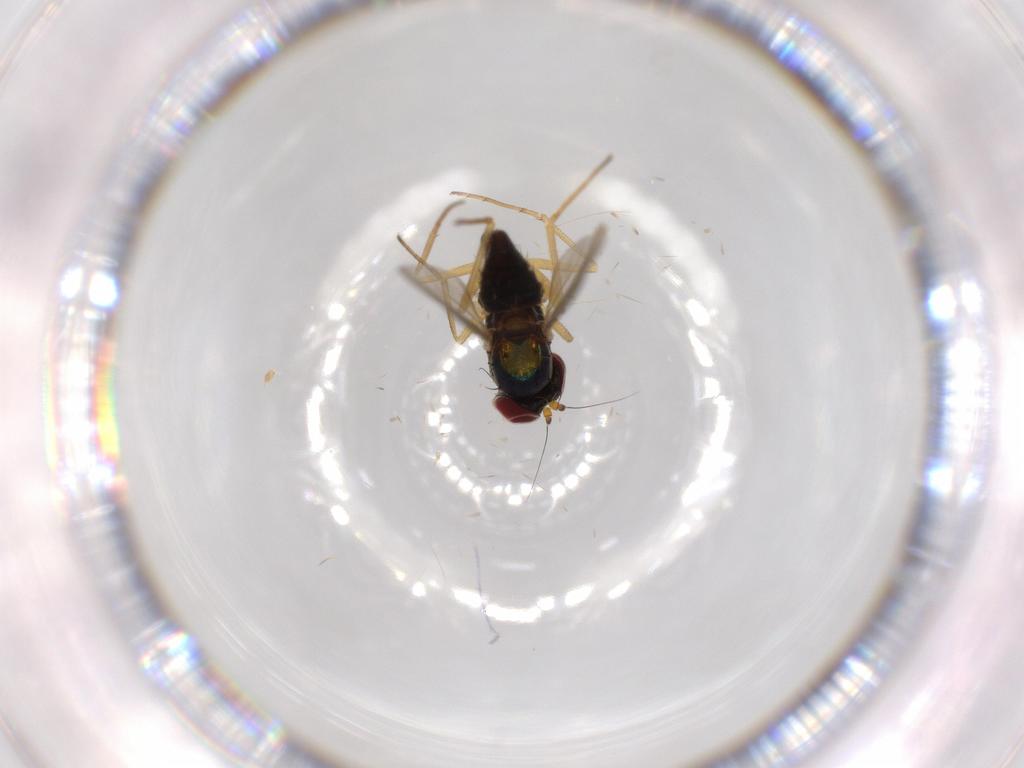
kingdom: Animalia
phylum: Arthropoda
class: Insecta
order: Diptera
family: Dolichopodidae
